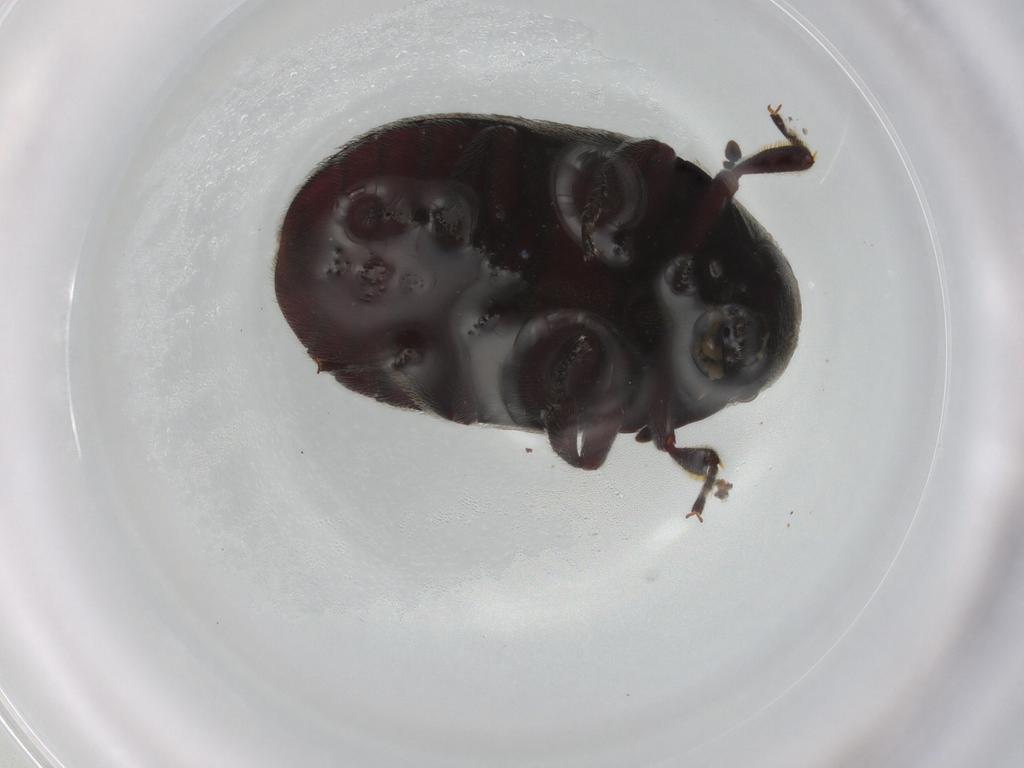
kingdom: Animalia
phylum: Arthropoda
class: Insecta
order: Coleoptera
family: Byrrhidae
